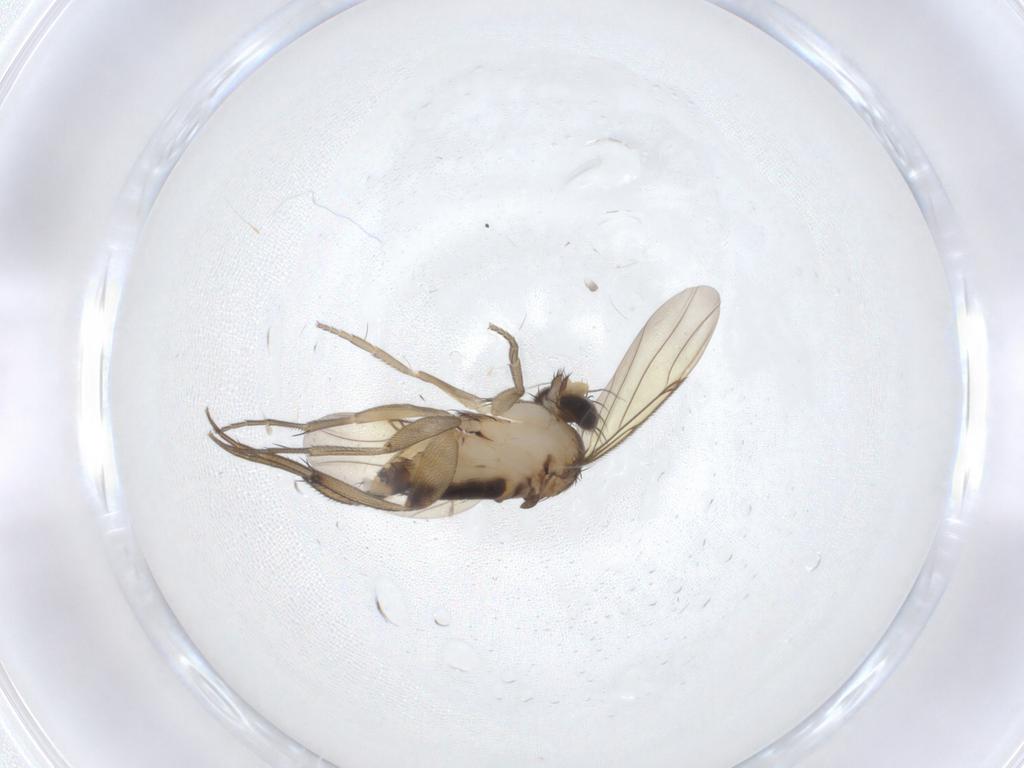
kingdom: Animalia
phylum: Arthropoda
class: Insecta
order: Diptera
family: Phoridae
